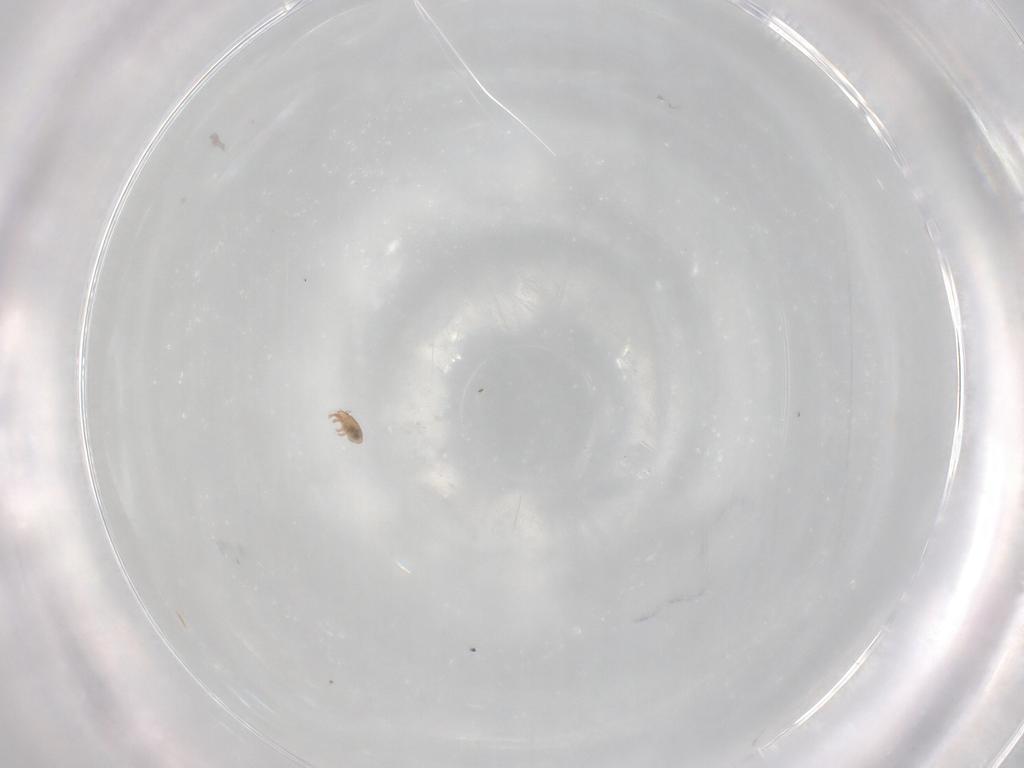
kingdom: Animalia
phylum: Arthropoda
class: Arachnida
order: Sarcoptiformes
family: Phenopelopidae
